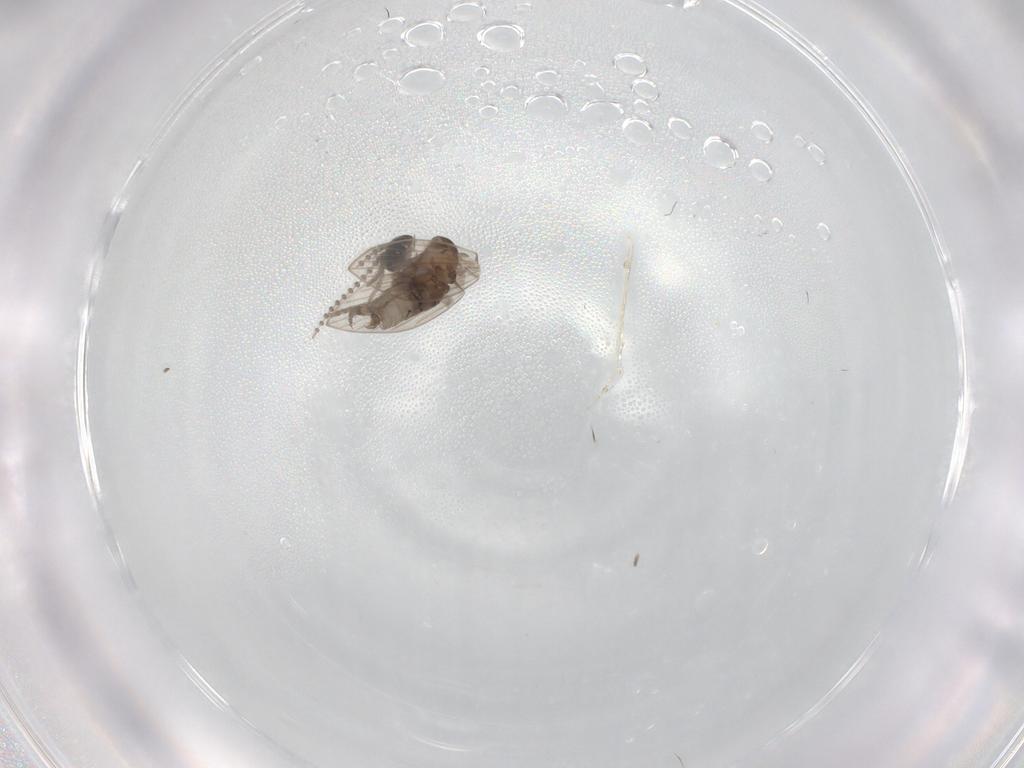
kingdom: Animalia
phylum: Arthropoda
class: Insecta
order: Diptera
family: Psychodidae
